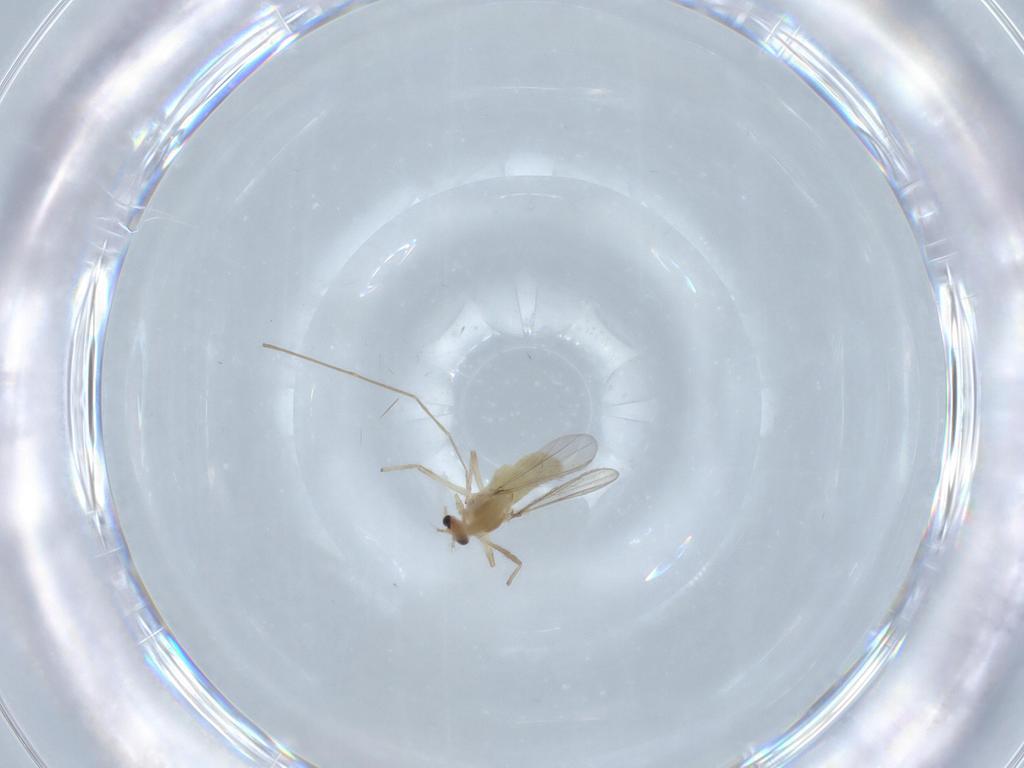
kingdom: Animalia
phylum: Arthropoda
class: Insecta
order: Diptera
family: Chironomidae
